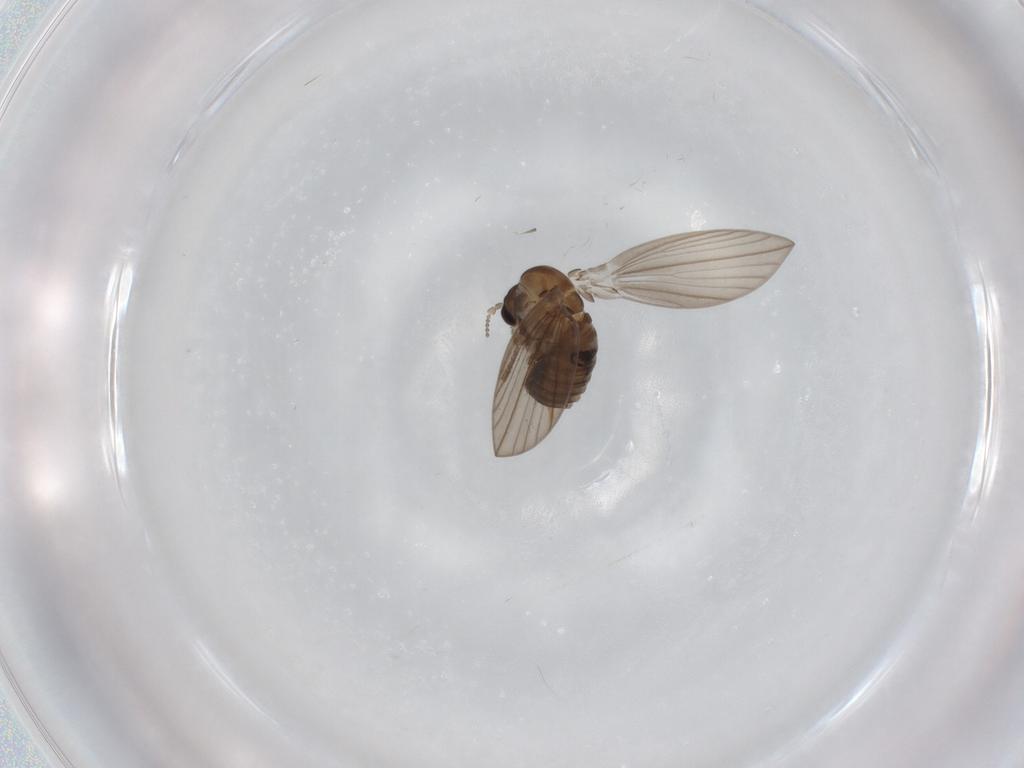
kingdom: Animalia
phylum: Arthropoda
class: Insecta
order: Diptera
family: Psychodidae
